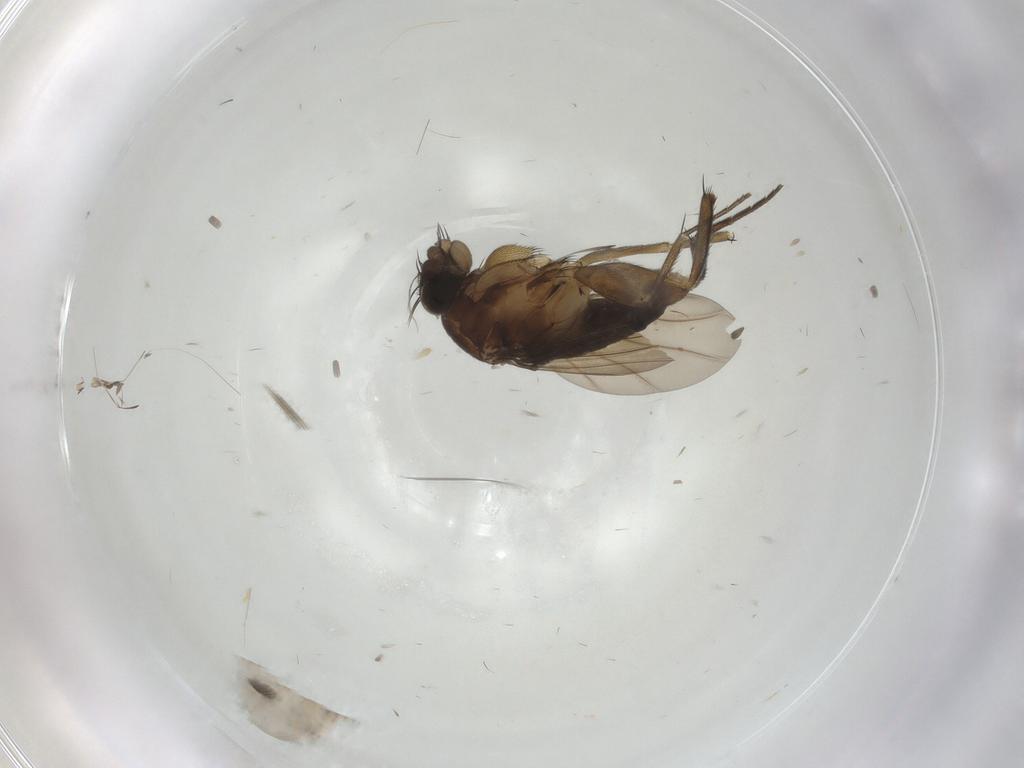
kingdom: Animalia
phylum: Arthropoda
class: Insecta
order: Diptera
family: Phoridae
